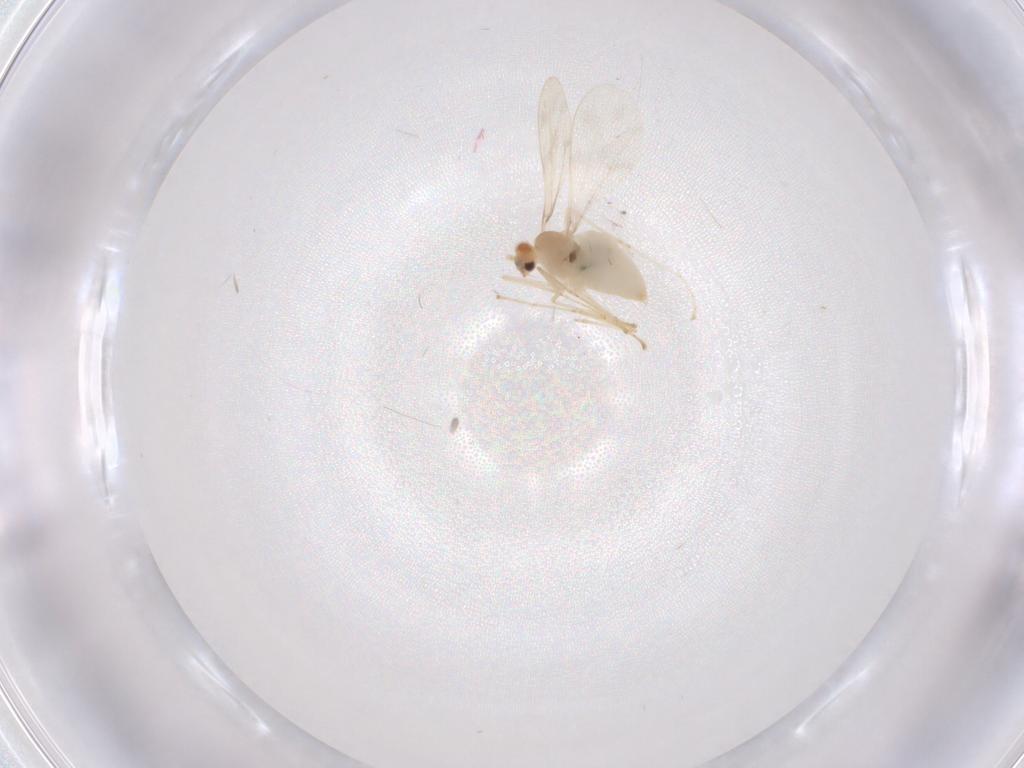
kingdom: Animalia
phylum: Arthropoda
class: Insecta
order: Diptera
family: Cecidomyiidae
